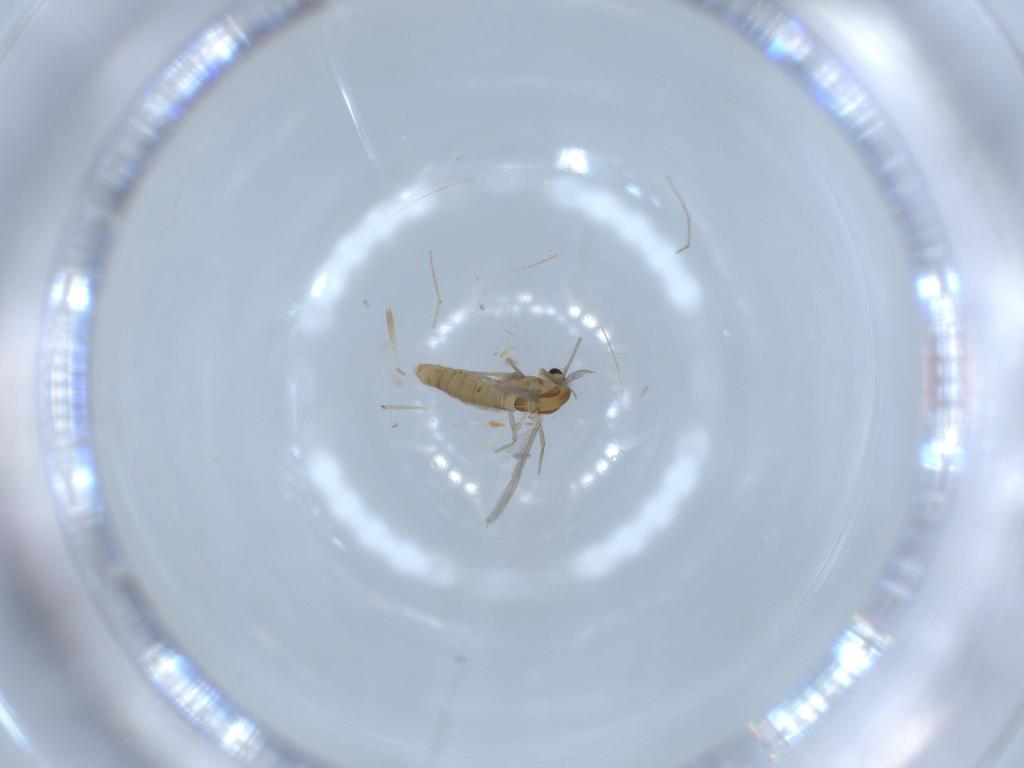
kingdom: Animalia
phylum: Arthropoda
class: Insecta
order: Diptera
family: Chironomidae
